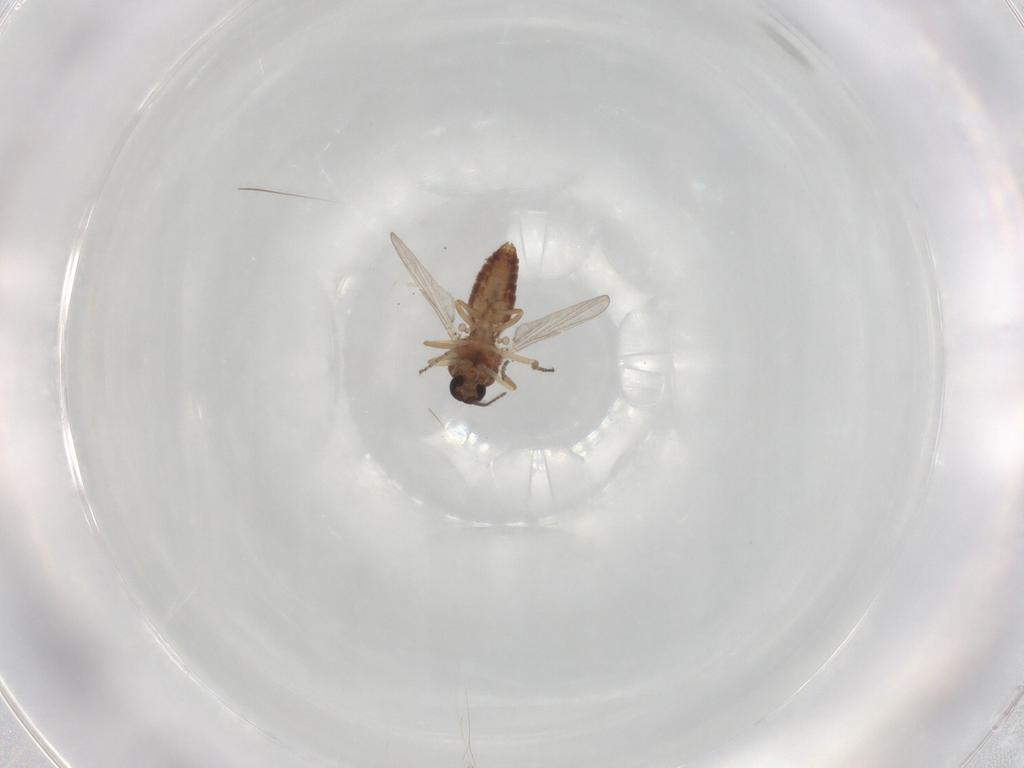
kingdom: Animalia
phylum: Arthropoda
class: Insecta
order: Diptera
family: Ceratopogonidae
